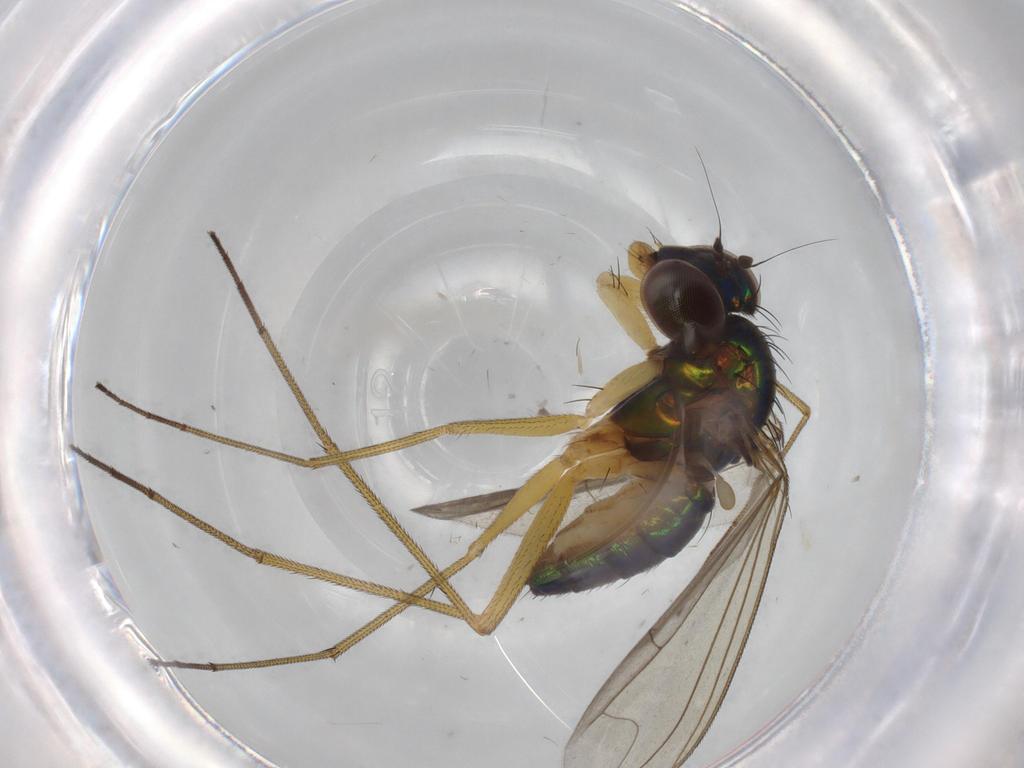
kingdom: Animalia
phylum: Arthropoda
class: Insecta
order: Diptera
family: Dolichopodidae
